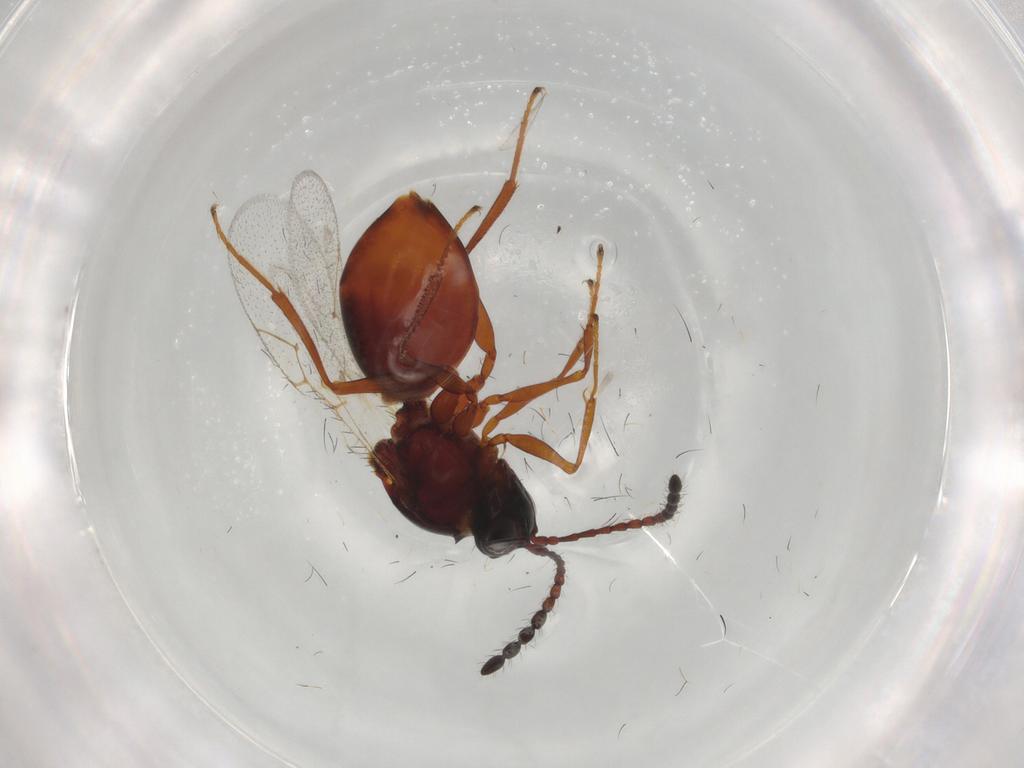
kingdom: Animalia
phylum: Arthropoda
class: Insecta
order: Hymenoptera
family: Figitidae
